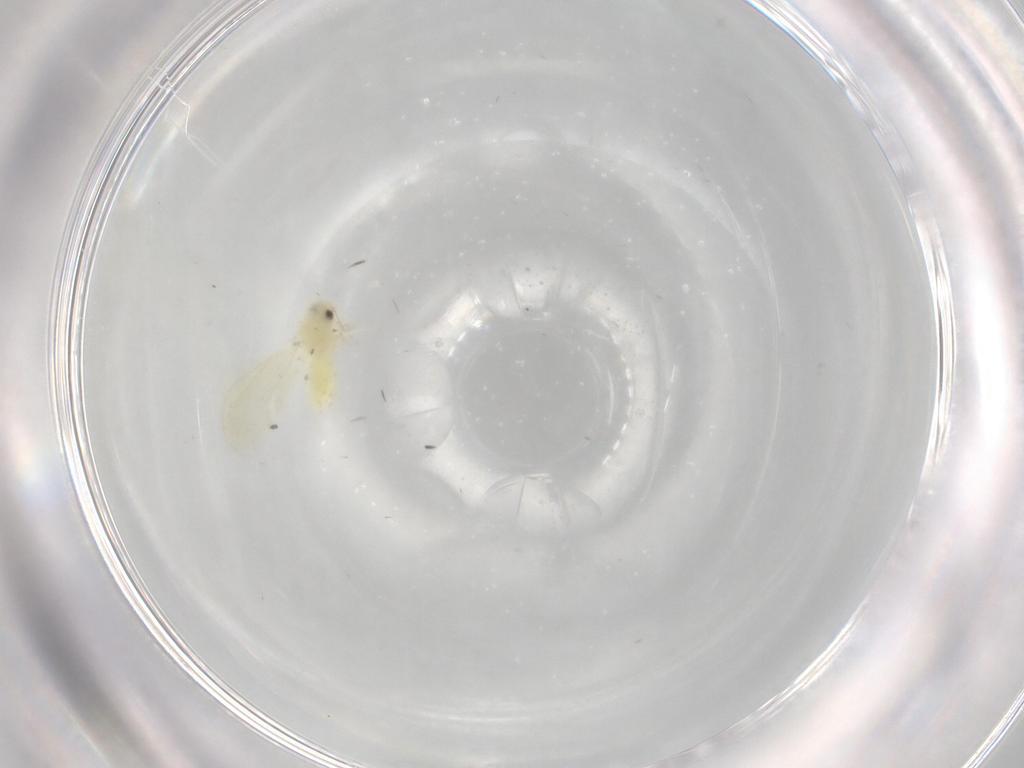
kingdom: Animalia
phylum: Arthropoda
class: Insecta
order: Hemiptera
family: Aleyrodidae
